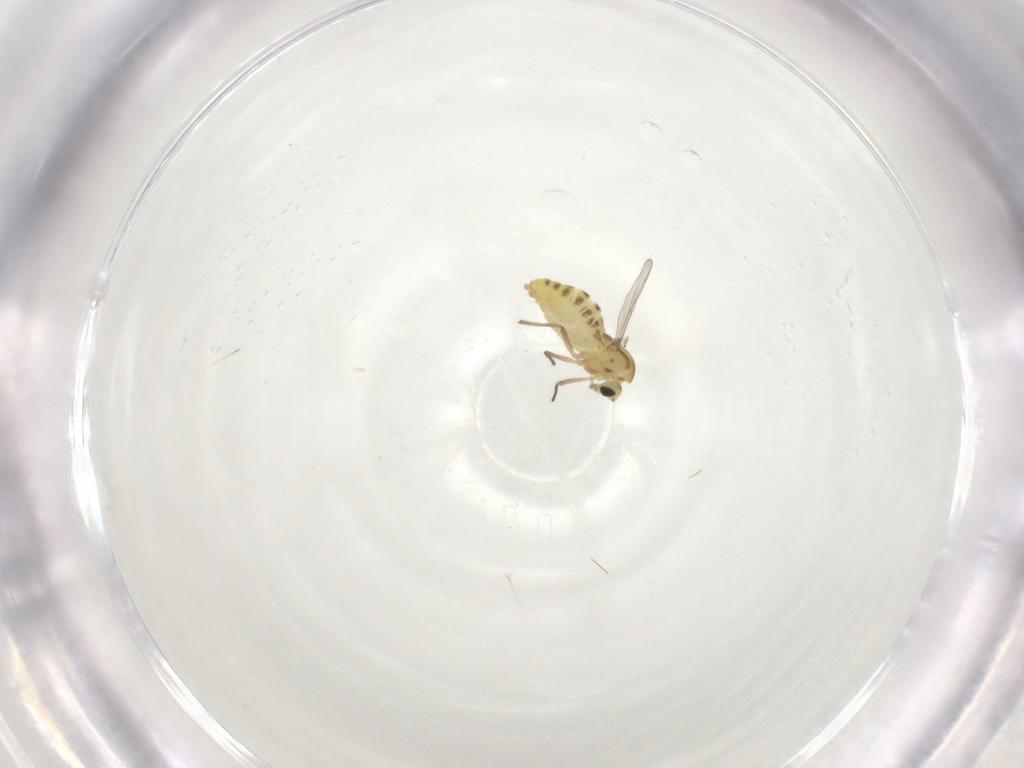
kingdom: Animalia
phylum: Arthropoda
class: Insecta
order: Diptera
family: Chironomidae
